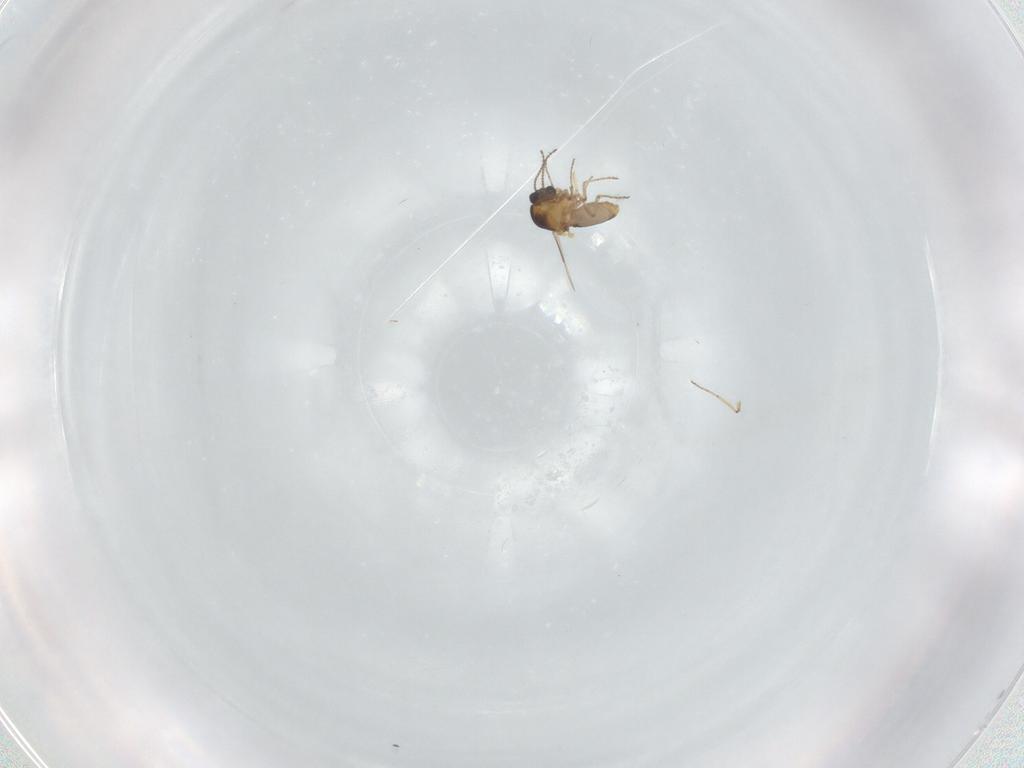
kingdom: Animalia
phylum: Arthropoda
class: Insecta
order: Diptera
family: Ceratopogonidae
